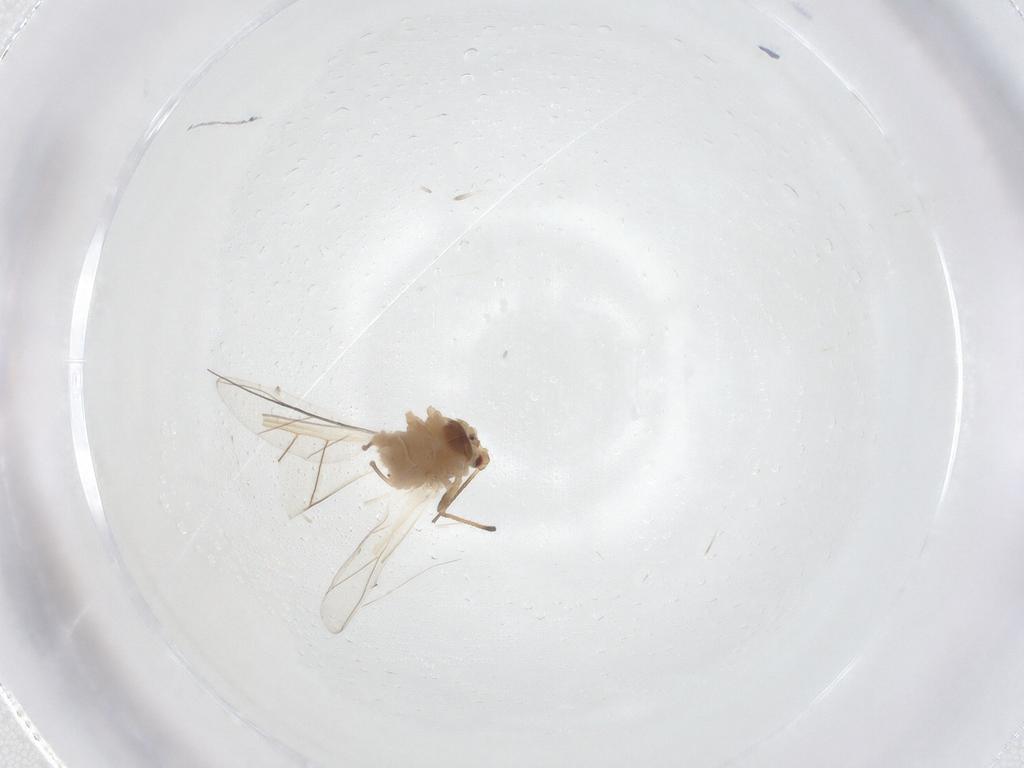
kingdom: Animalia
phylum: Arthropoda
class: Insecta
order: Hemiptera
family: Aphididae
